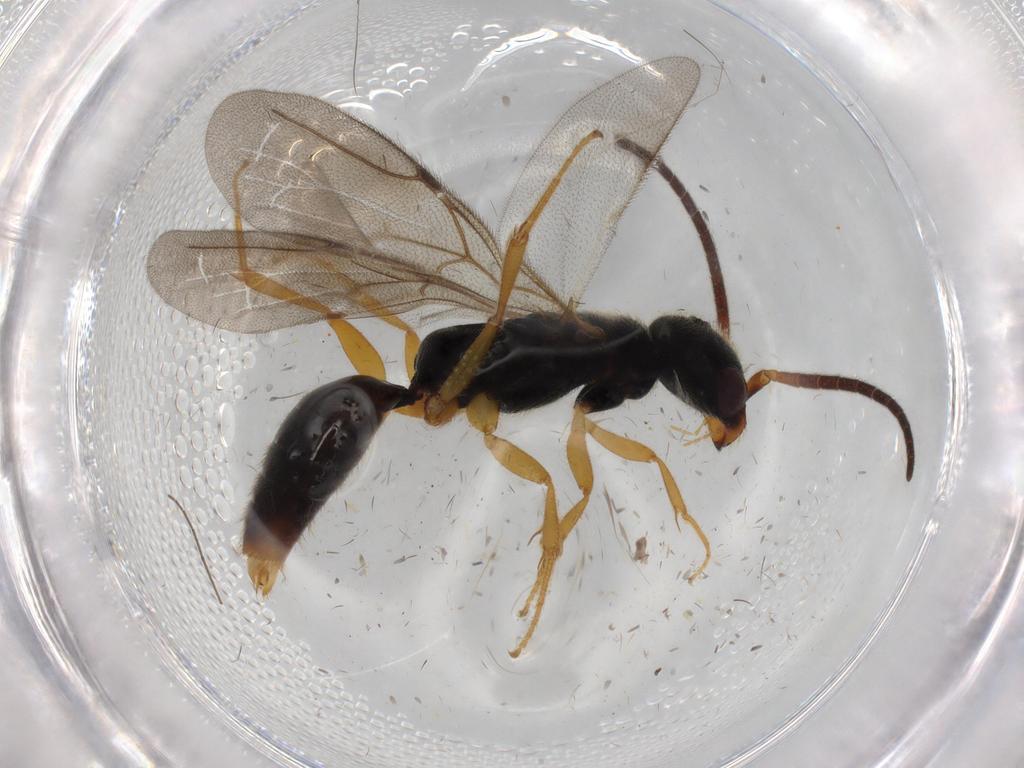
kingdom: Animalia
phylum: Arthropoda
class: Insecta
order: Hymenoptera
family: Bethylidae
